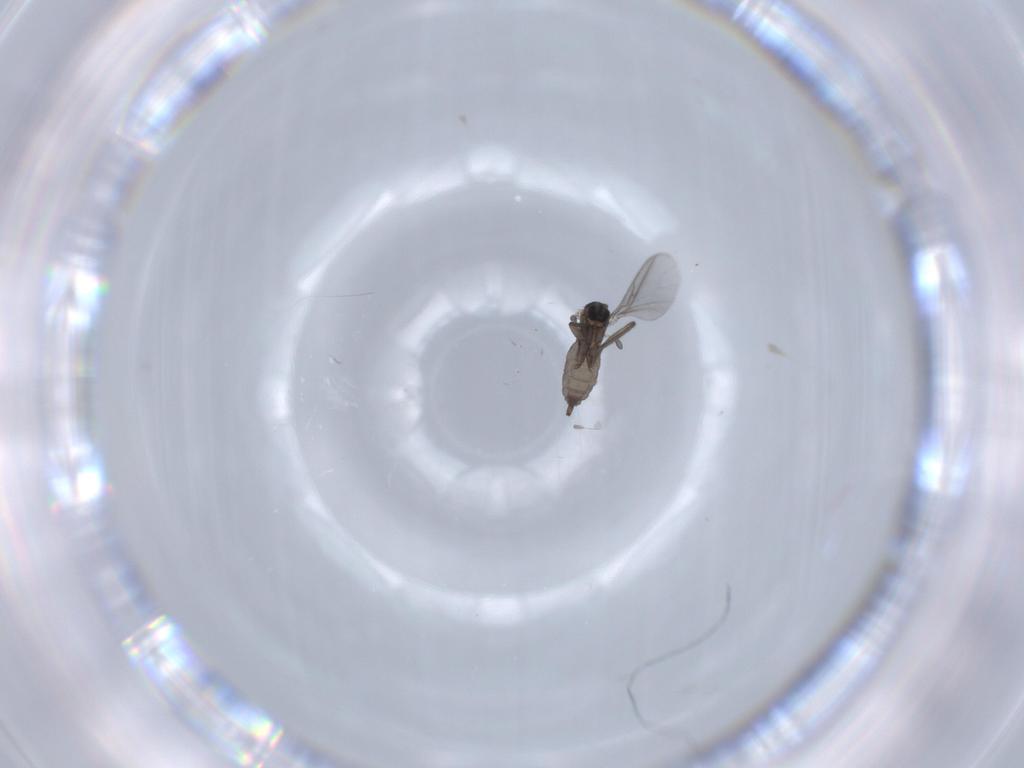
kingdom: Animalia
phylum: Arthropoda
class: Insecta
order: Diptera
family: Sciaridae
